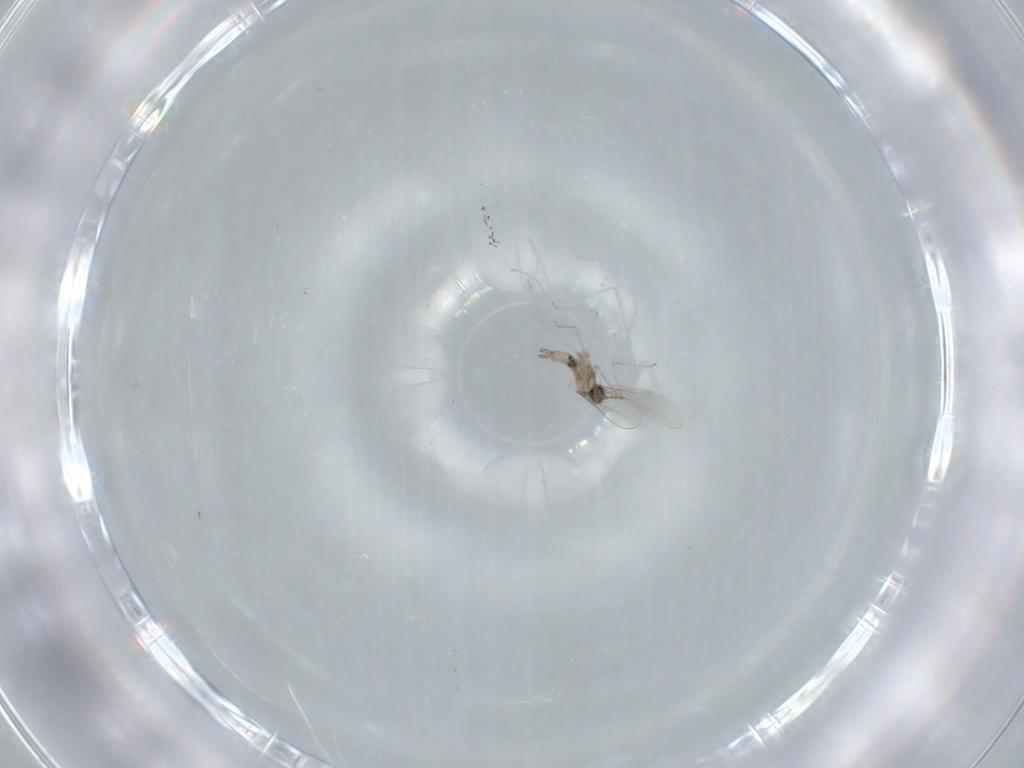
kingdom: Animalia
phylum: Arthropoda
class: Insecta
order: Diptera
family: Cecidomyiidae
